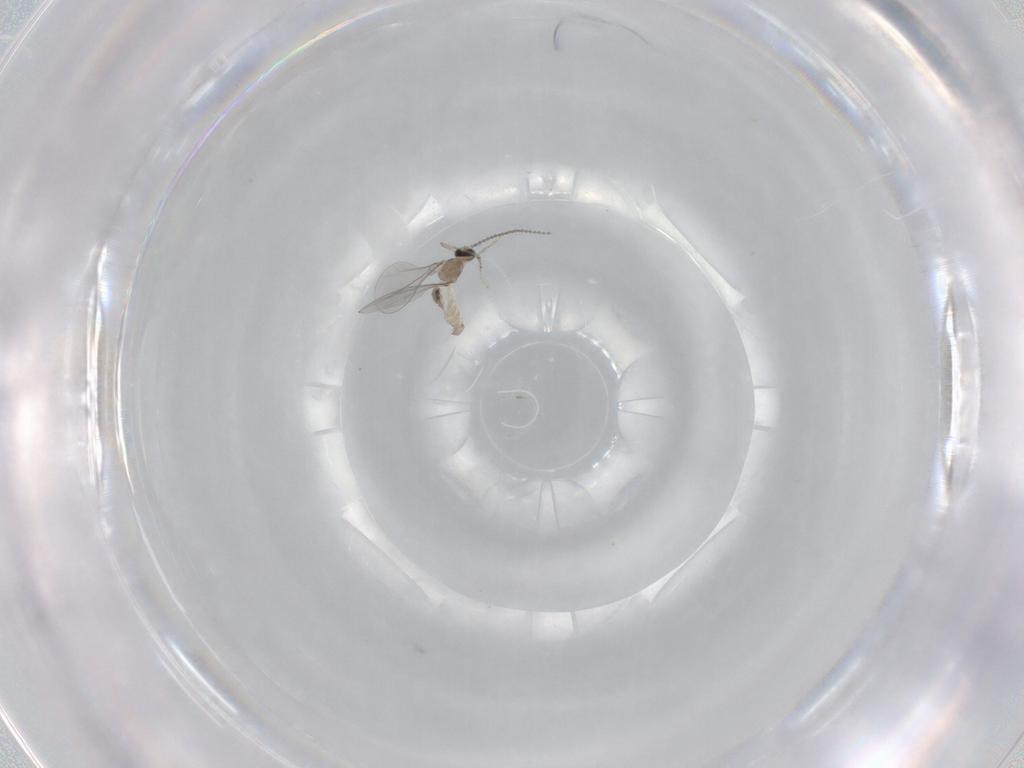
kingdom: Animalia
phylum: Arthropoda
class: Insecta
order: Diptera
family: Cecidomyiidae
